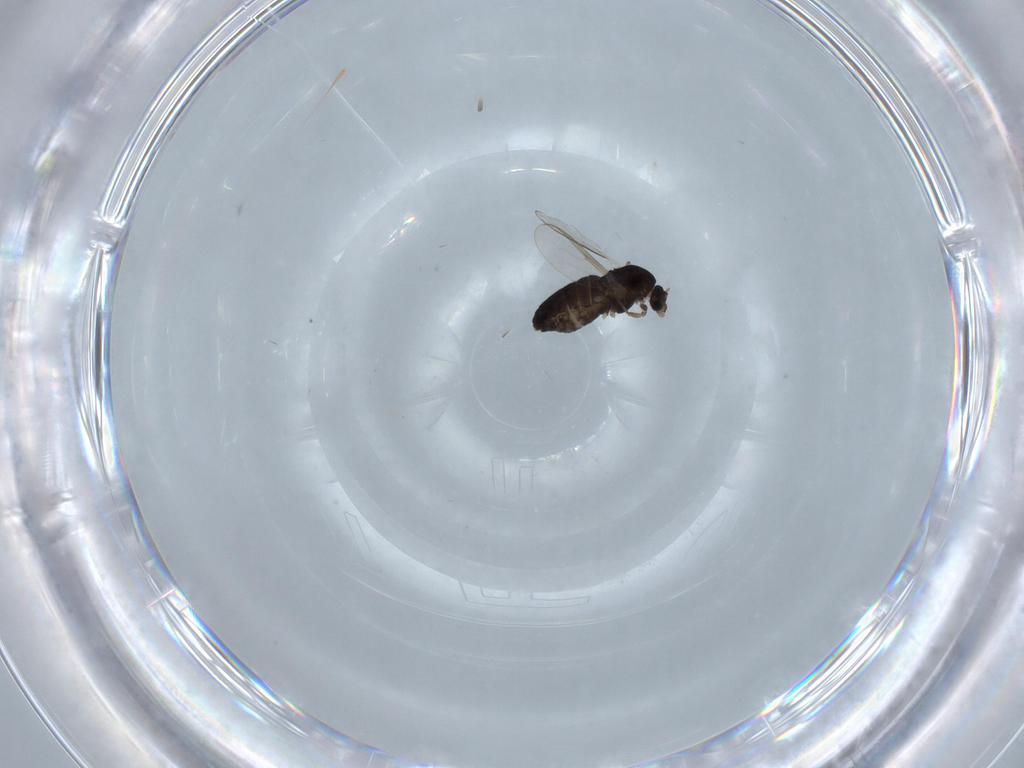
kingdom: Animalia
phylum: Arthropoda
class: Insecta
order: Diptera
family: Chironomidae
